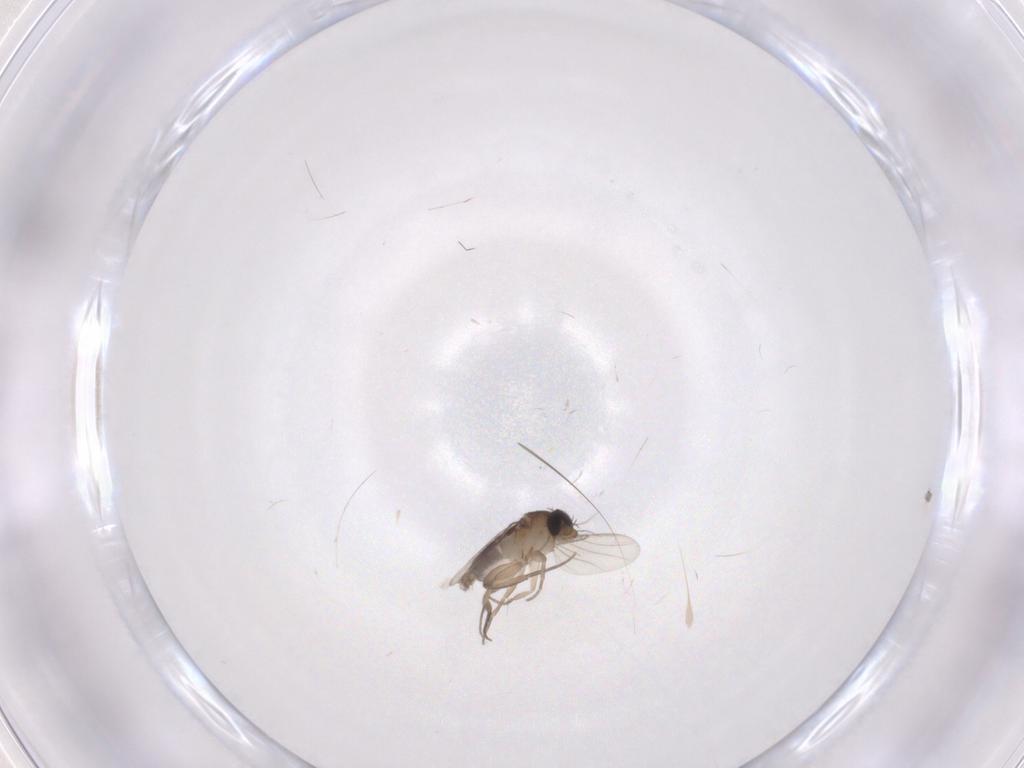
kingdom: Animalia
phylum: Arthropoda
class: Insecta
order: Diptera
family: Phoridae
